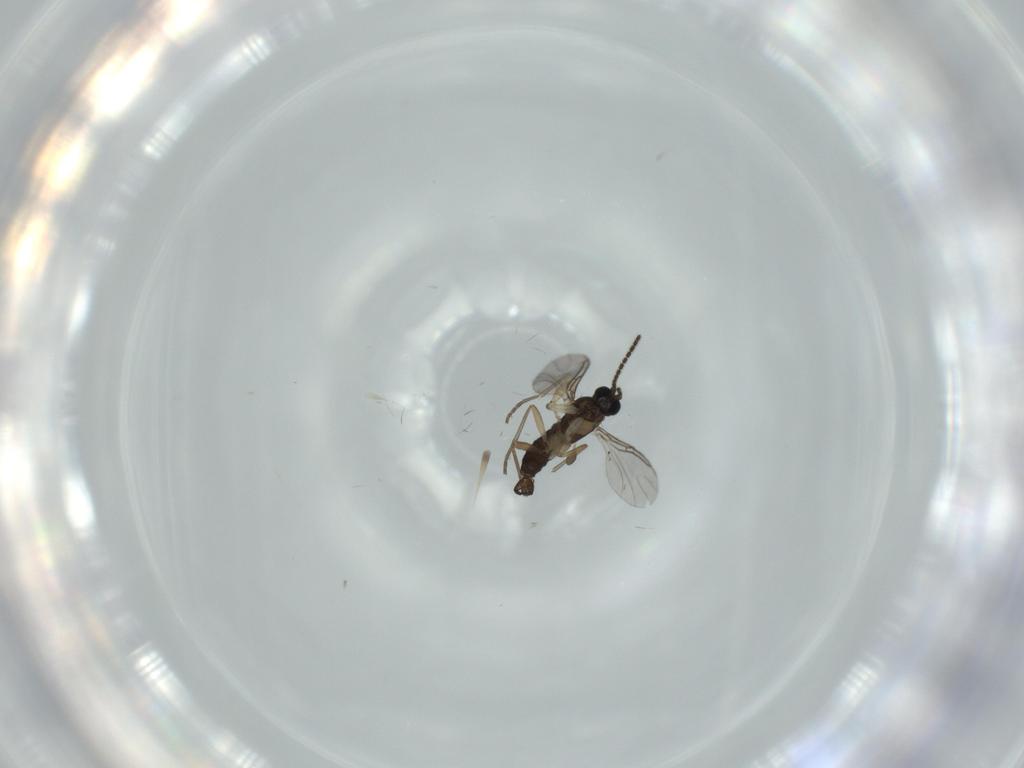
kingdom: Animalia
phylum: Arthropoda
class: Insecta
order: Diptera
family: Sciaridae
